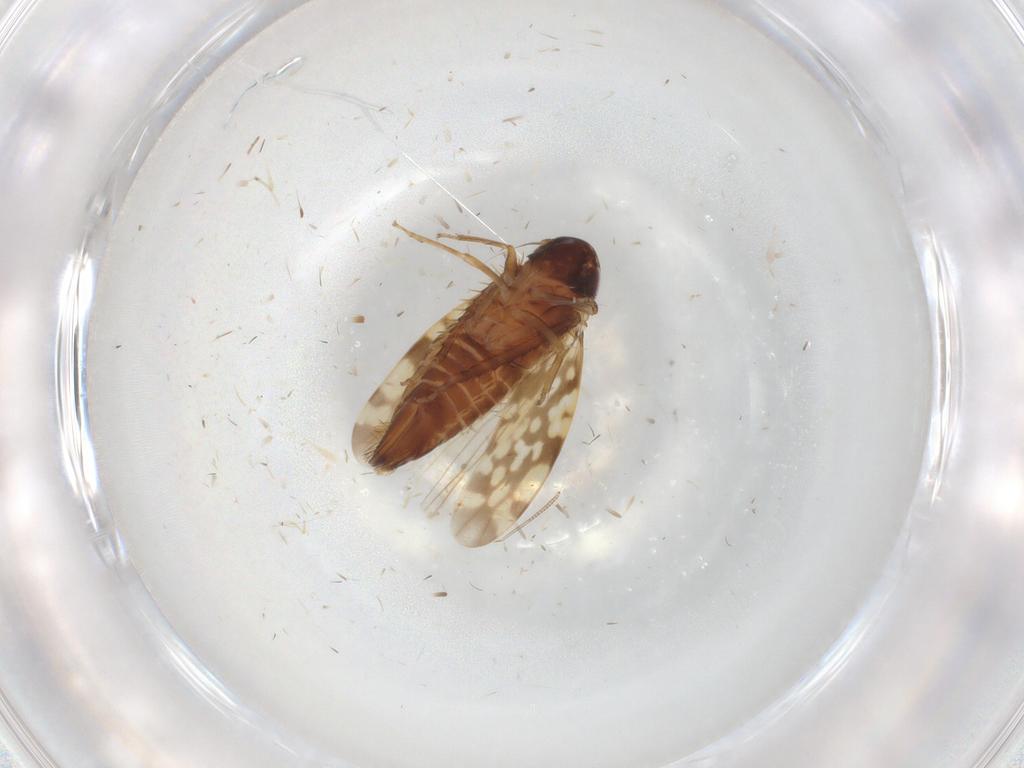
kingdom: Animalia
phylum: Arthropoda
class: Insecta
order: Hemiptera
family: Cicadellidae
